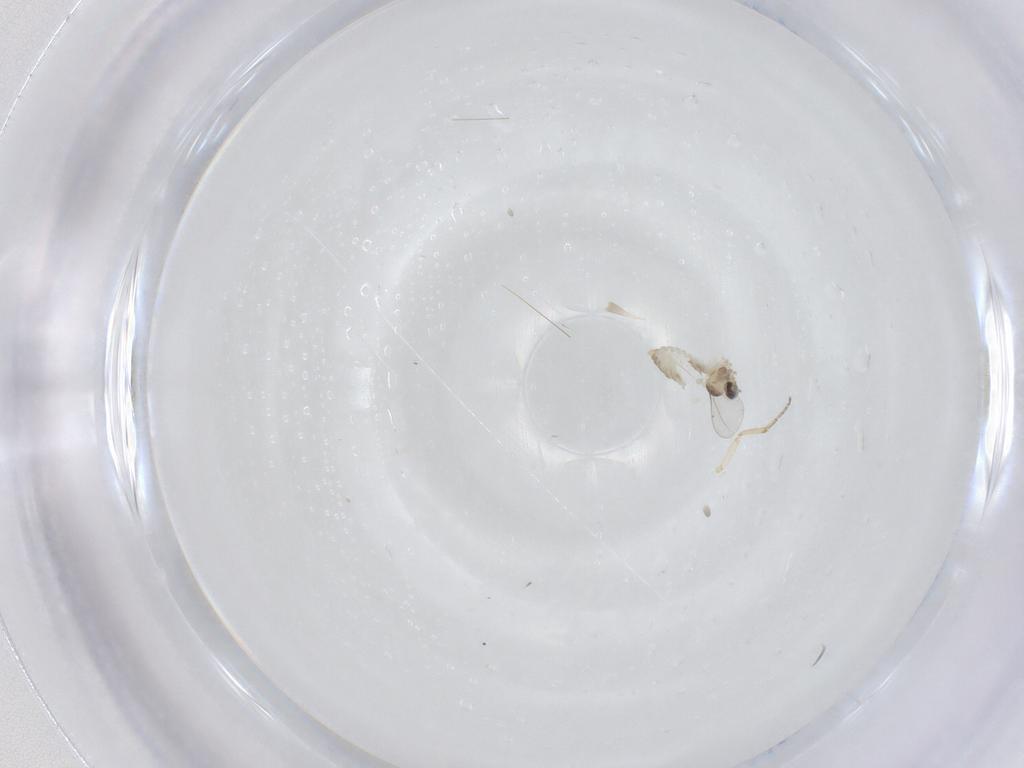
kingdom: Animalia
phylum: Arthropoda
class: Insecta
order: Diptera
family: Cecidomyiidae
